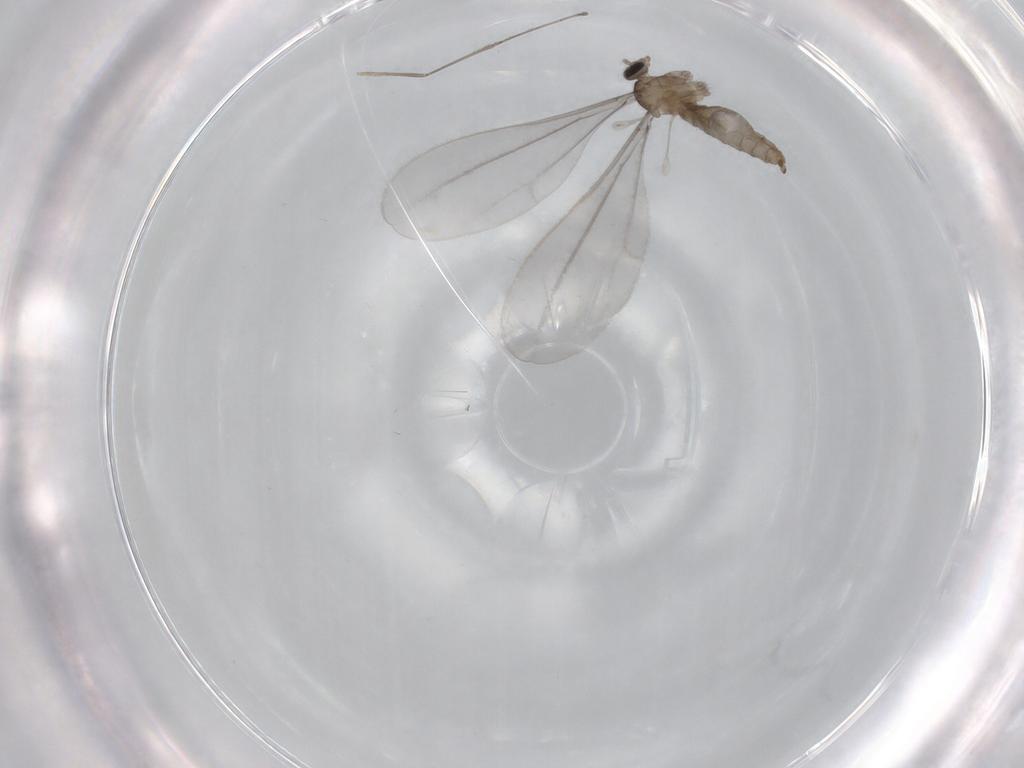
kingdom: Animalia
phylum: Arthropoda
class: Insecta
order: Diptera
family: Cecidomyiidae
